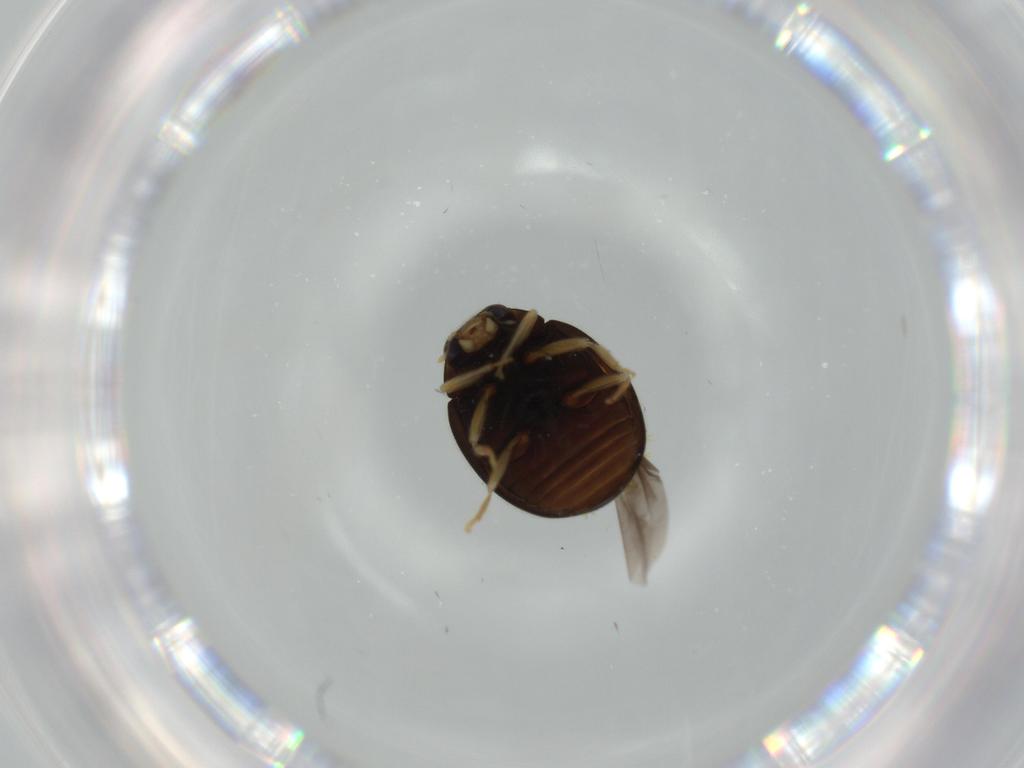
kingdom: Animalia
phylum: Arthropoda
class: Insecta
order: Coleoptera
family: Coccinellidae
